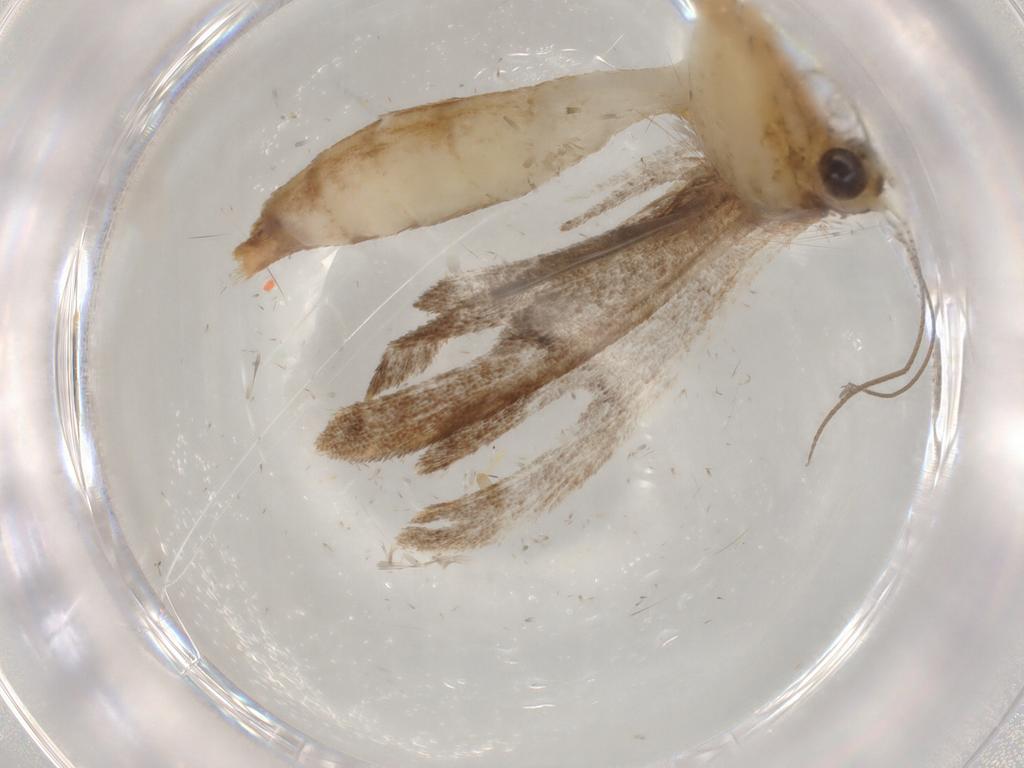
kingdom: Animalia
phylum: Arthropoda
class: Insecta
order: Lepidoptera
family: Pterophoridae
